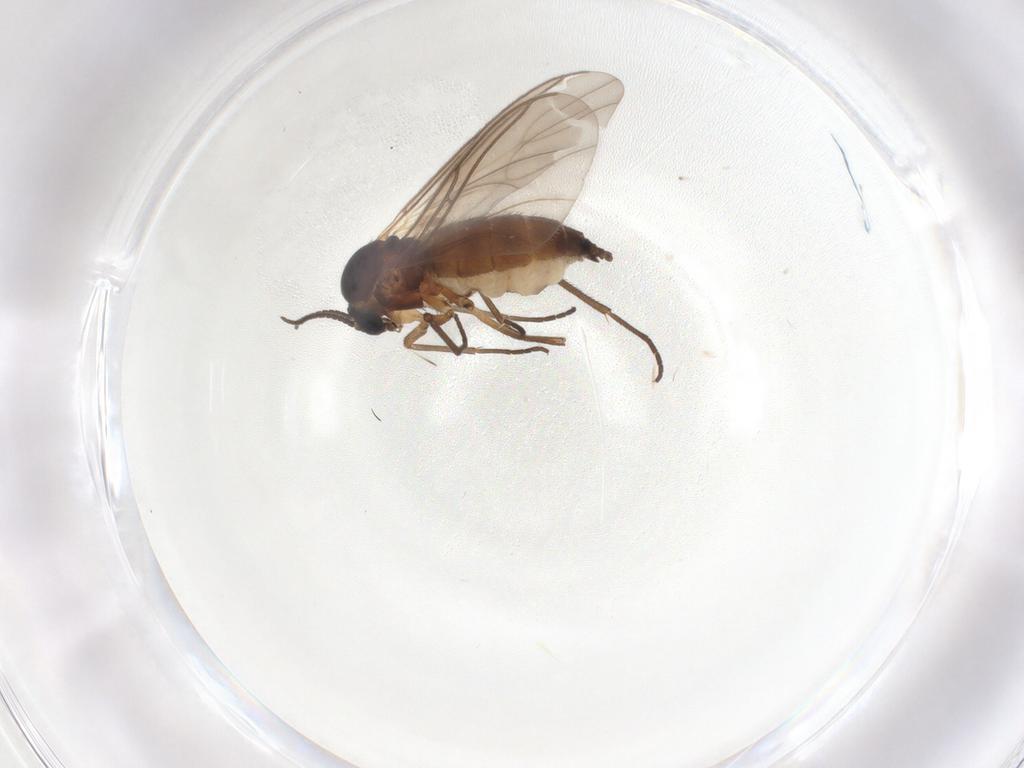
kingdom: Animalia
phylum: Arthropoda
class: Insecta
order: Diptera
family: Sciaridae
